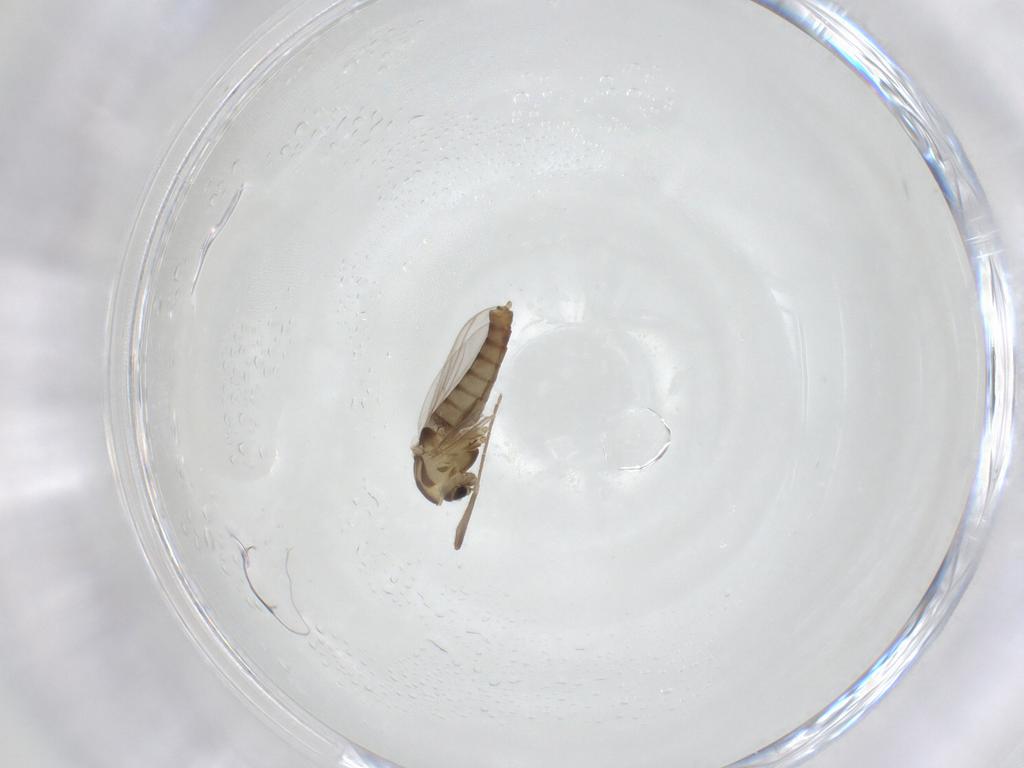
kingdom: Animalia
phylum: Arthropoda
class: Insecta
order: Diptera
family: Chironomidae
